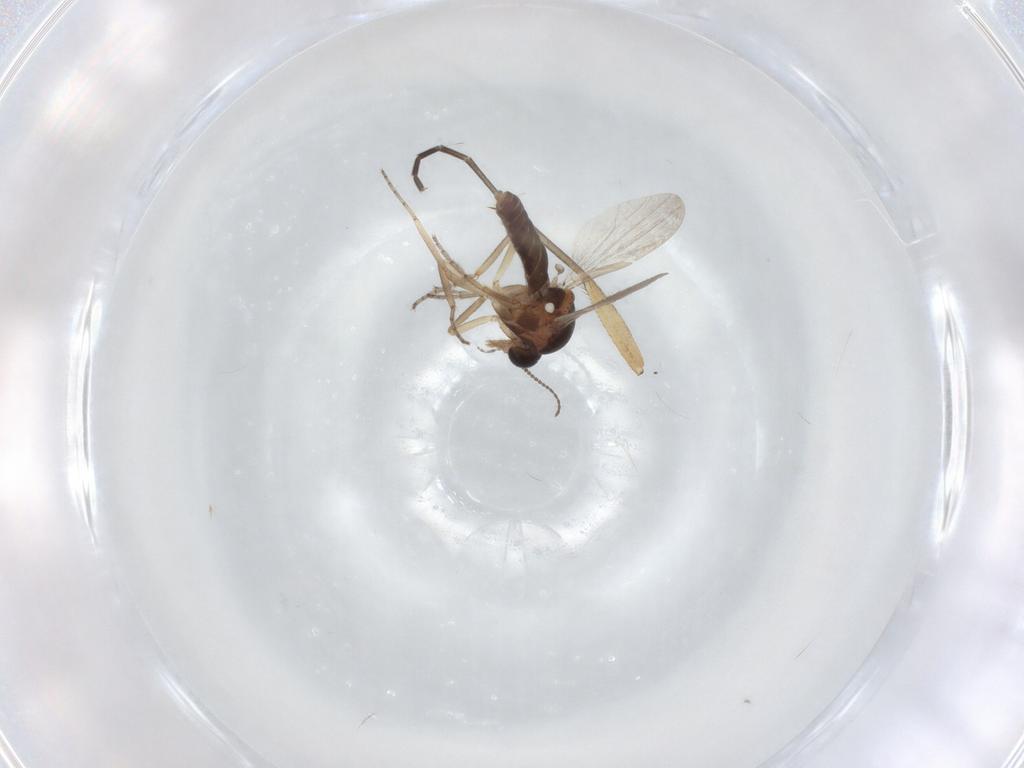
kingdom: Animalia
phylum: Arthropoda
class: Insecta
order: Diptera
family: Mycetophilidae
